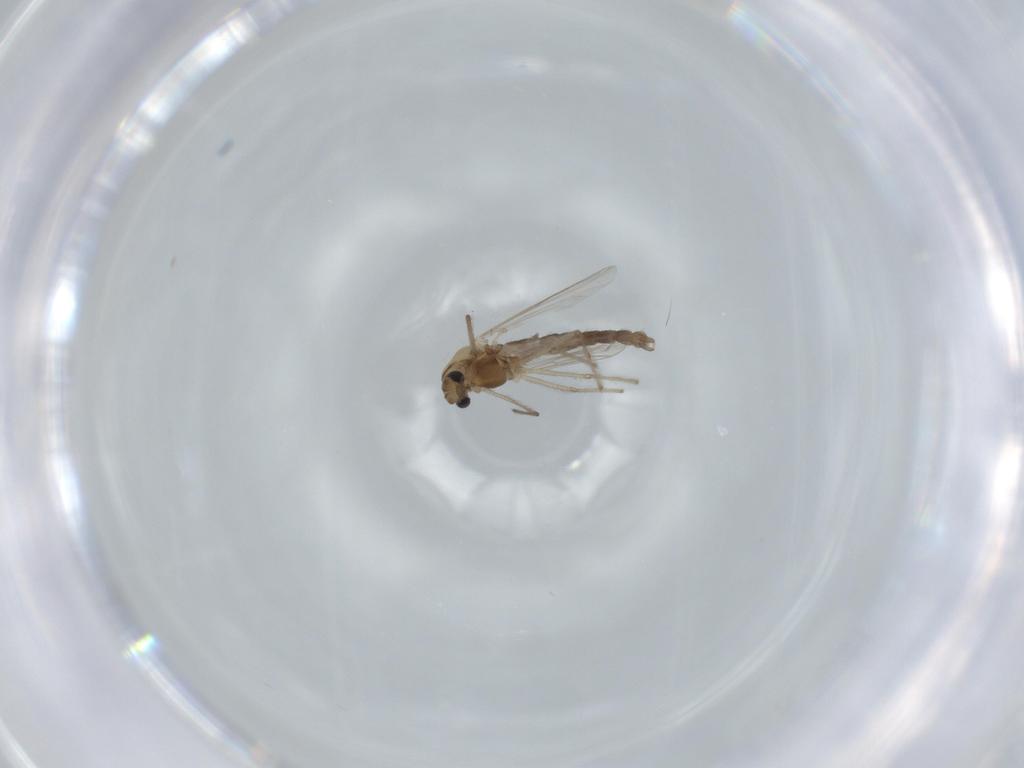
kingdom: Animalia
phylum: Arthropoda
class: Insecta
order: Diptera
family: Chironomidae
